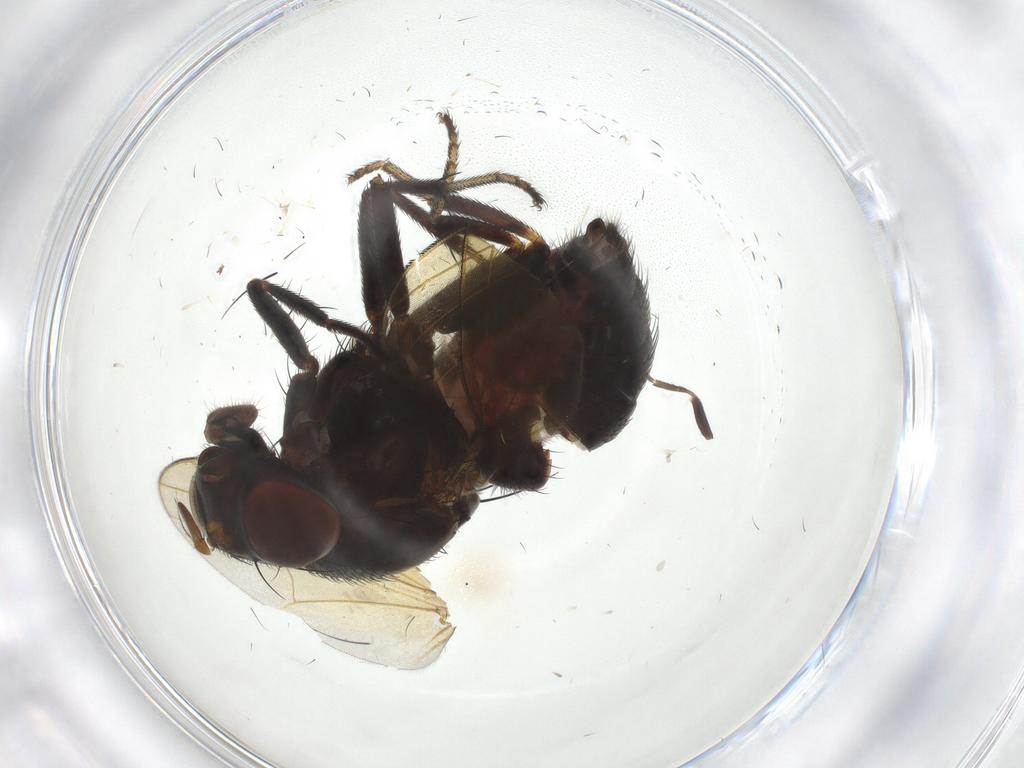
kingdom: Animalia
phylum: Arthropoda
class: Insecta
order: Diptera
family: Lauxaniidae
